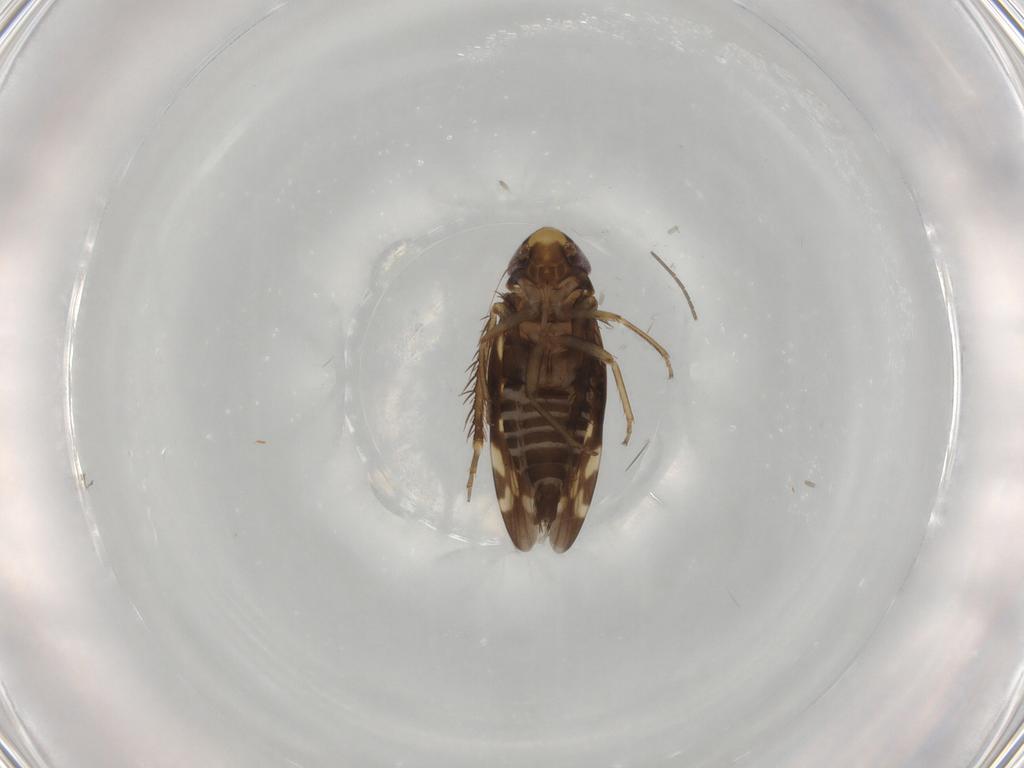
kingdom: Animalia
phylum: Arthropoda
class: Insecta
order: Hemiptera
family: Cicadellidae
